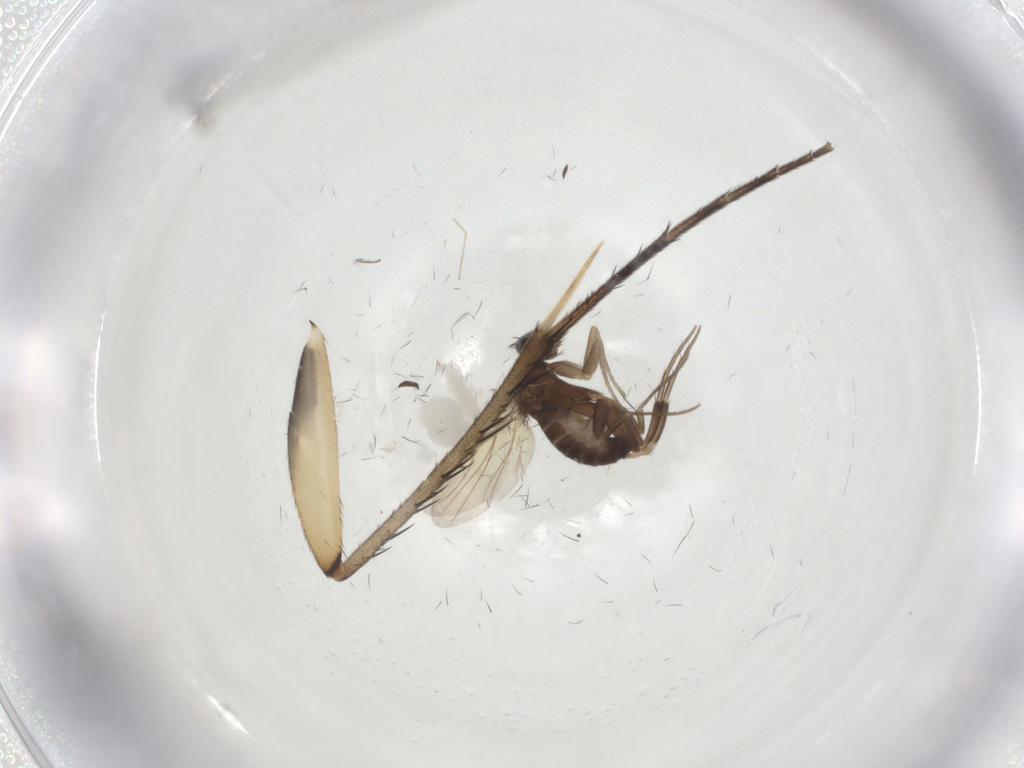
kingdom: Animalia
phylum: Arthropoda
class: Insecta
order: Diptera
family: Mycetophilidae
